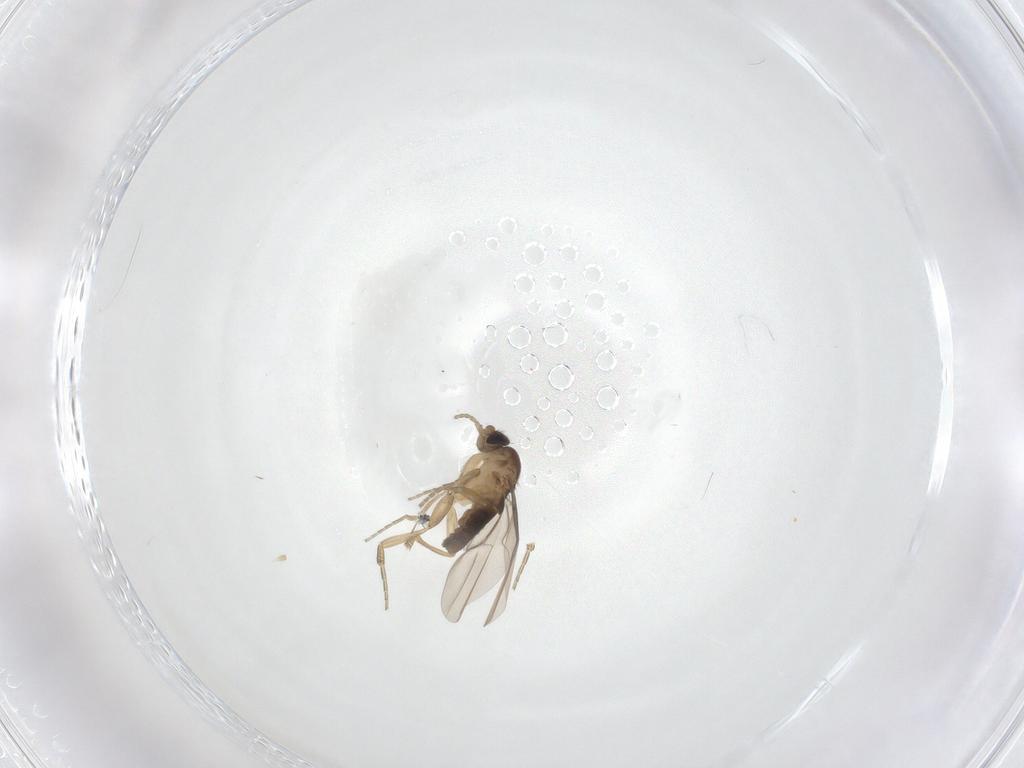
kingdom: Animalia
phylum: Arthropoda
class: Insecta
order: Diptera
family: Phoridae
